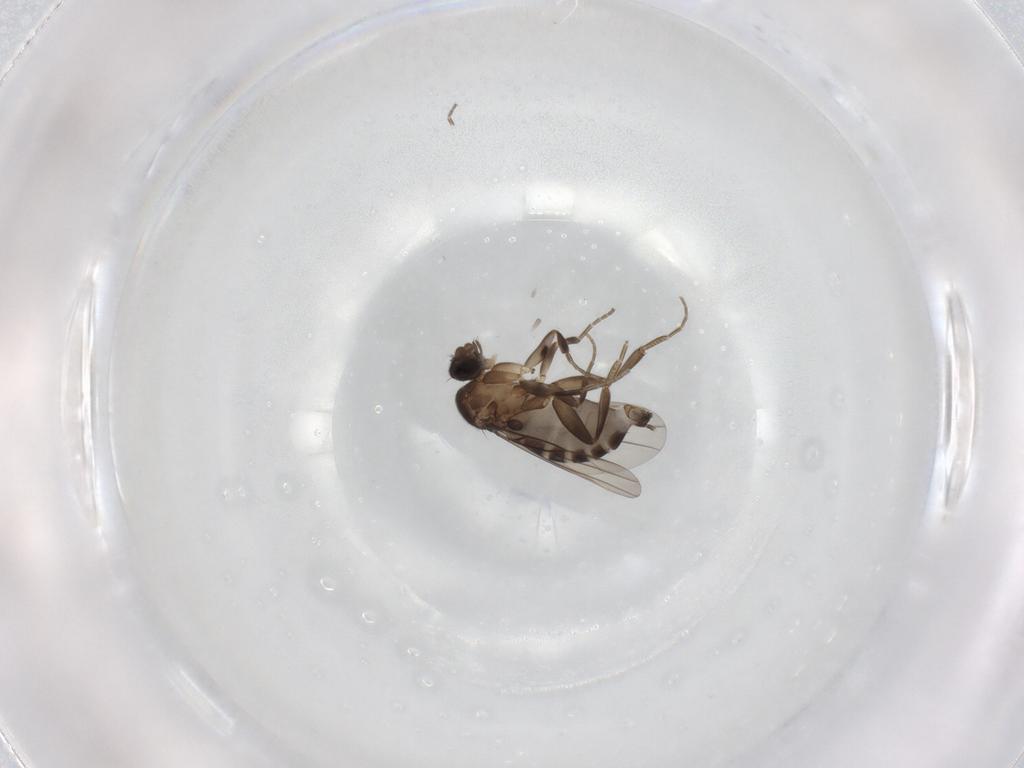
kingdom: Animalia
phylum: Arthropoda
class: Insecta
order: Diptera
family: Phoridae
